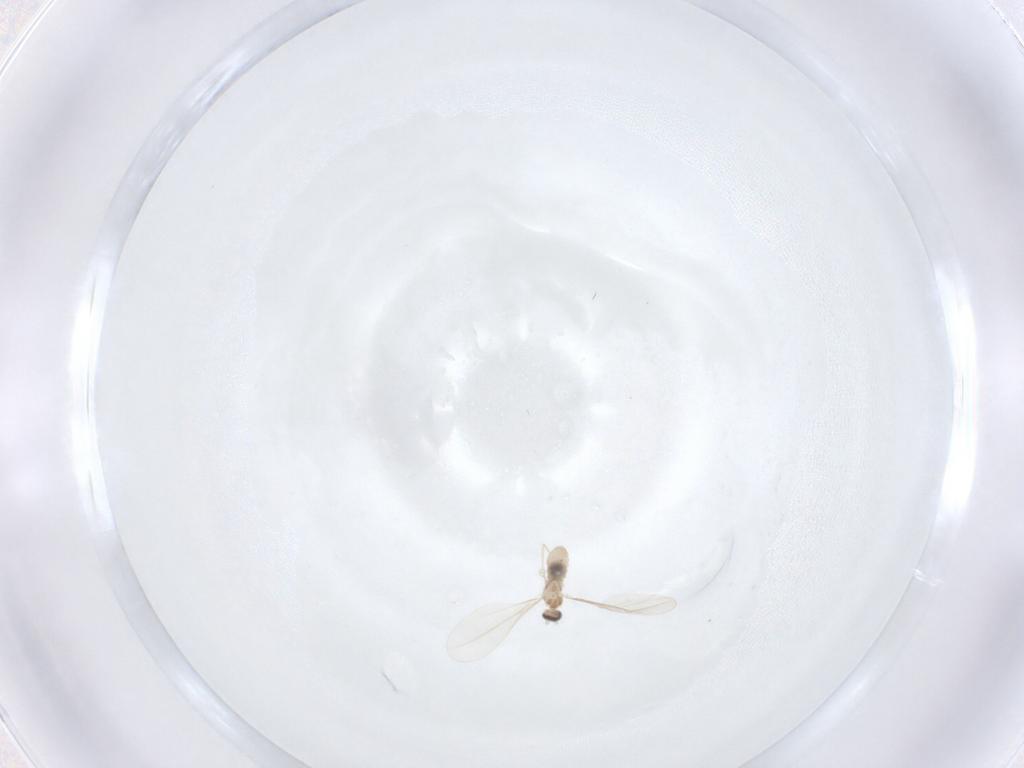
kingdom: Animalia
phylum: Arthropoda
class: Insecta
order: Diptera
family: Cecidomyiidae
